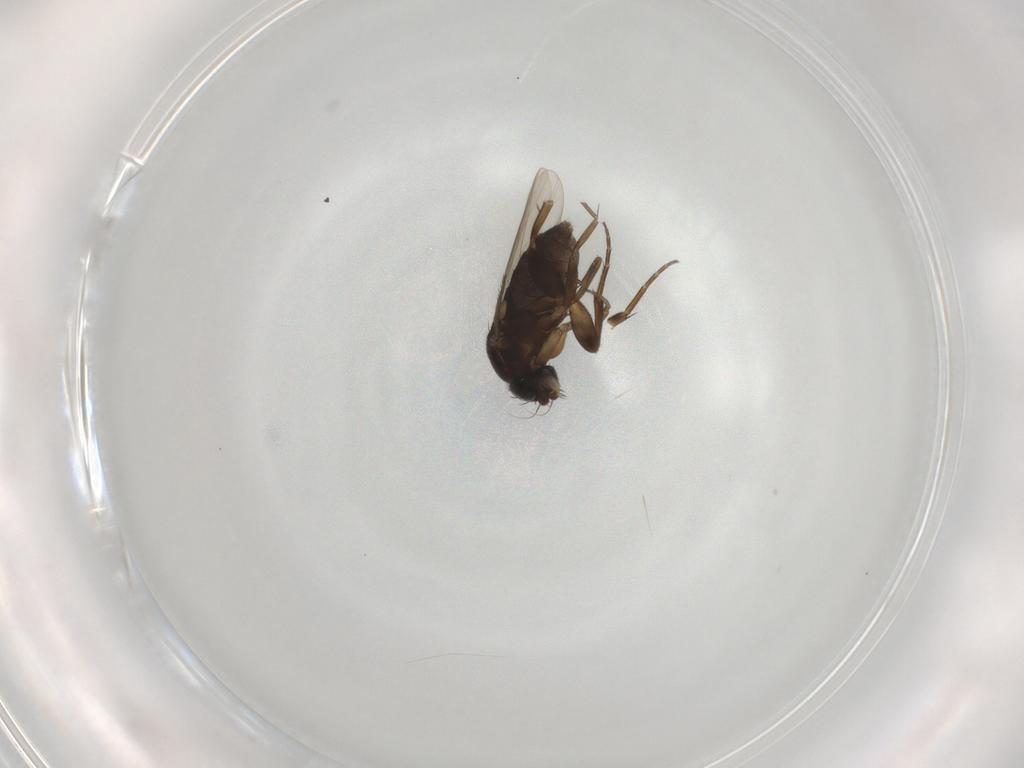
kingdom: Animalia
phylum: Arthropoda
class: Insecta
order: Diptera
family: Phoridae
